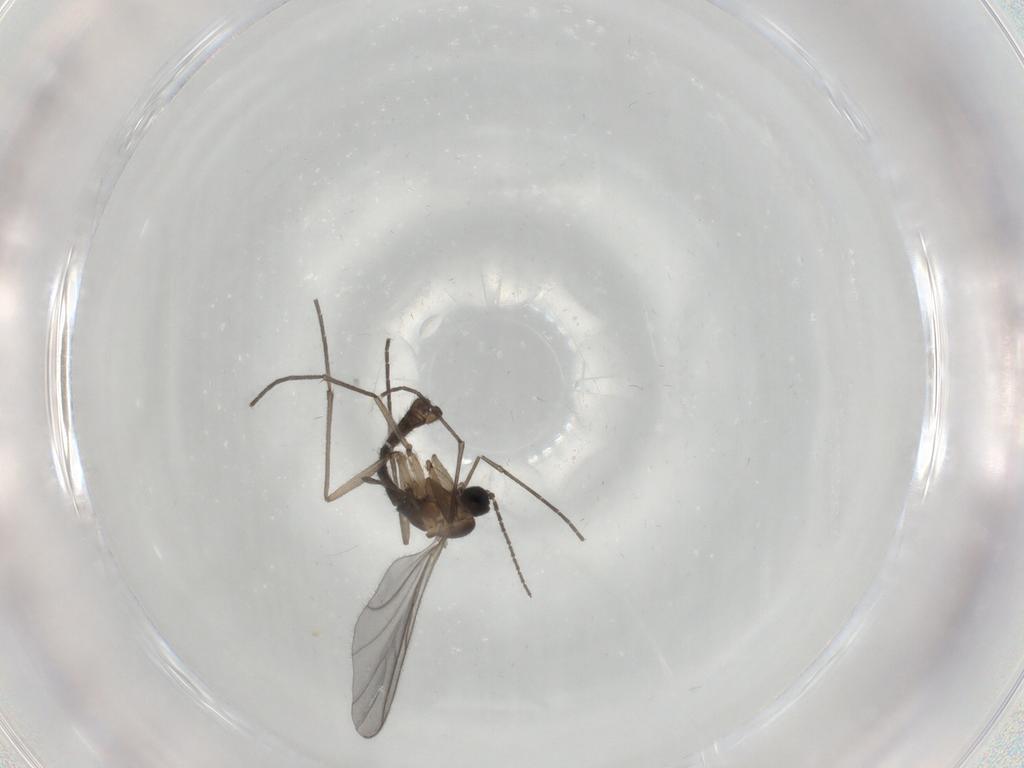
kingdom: Animalia
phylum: Arthropoda
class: Insecta
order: Diptera
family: Sciaridae
